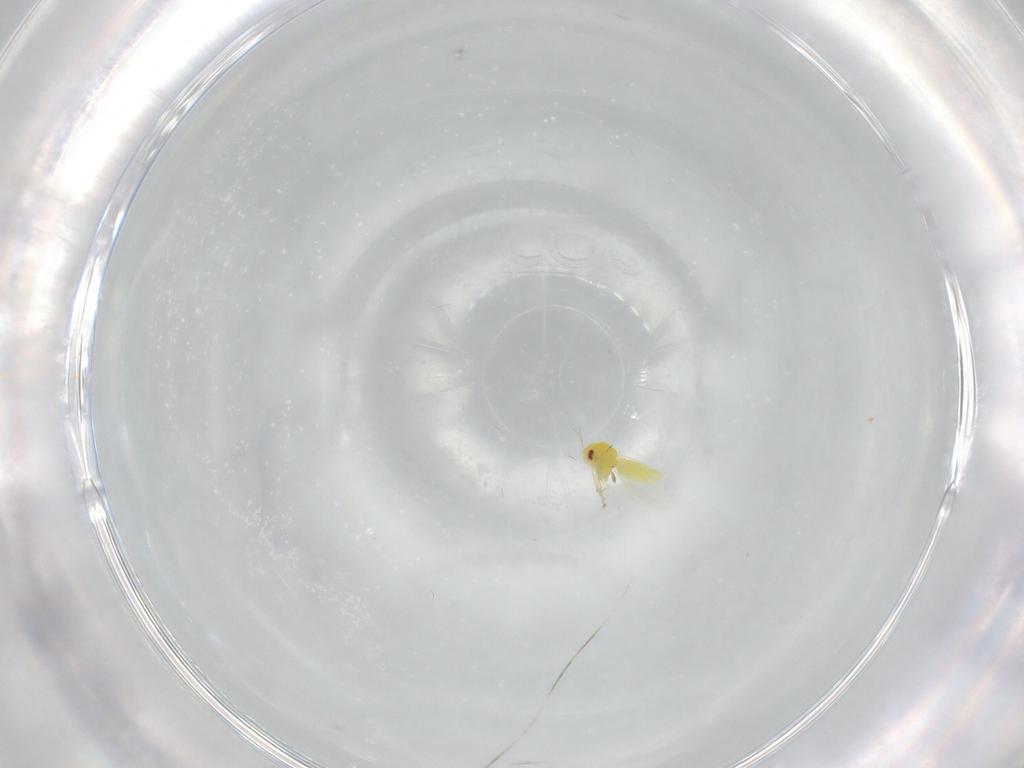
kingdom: Animalia
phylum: Arthropoda
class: Insecta
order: Hemiptera
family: Aleyrodidae
